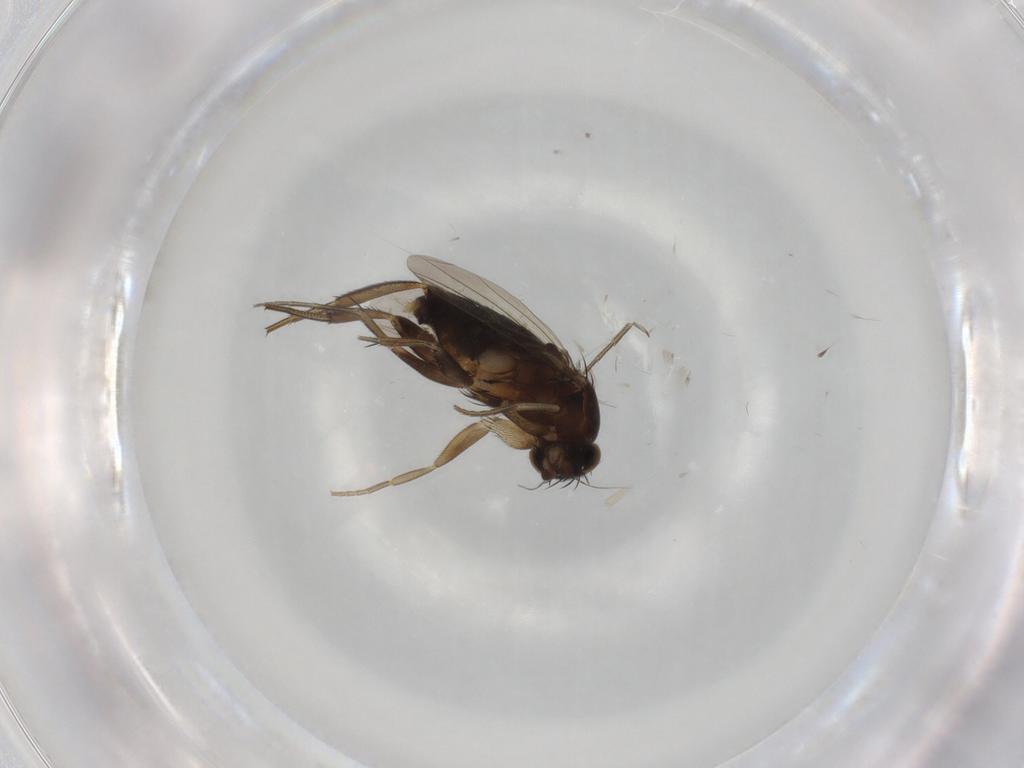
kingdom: Animalia
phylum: Arthropoda
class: Insecta
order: Diptera
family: Phoridae
